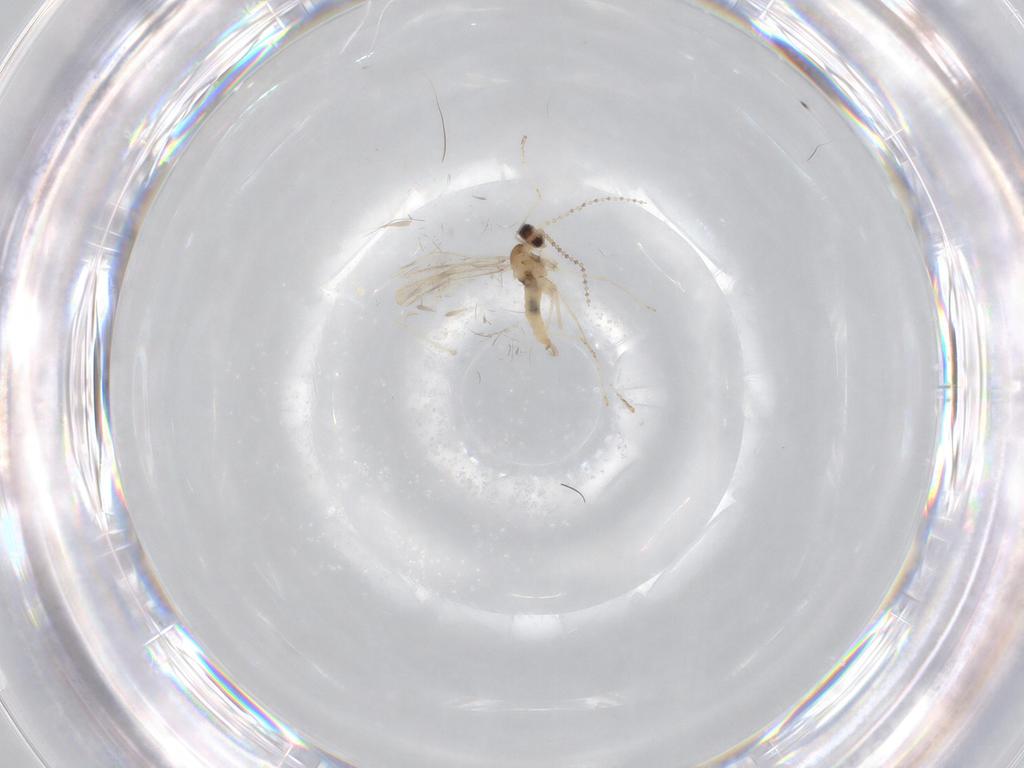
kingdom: Animalia
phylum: Arthropoda
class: Insecta
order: Diptera
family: Cecidomyiidae
